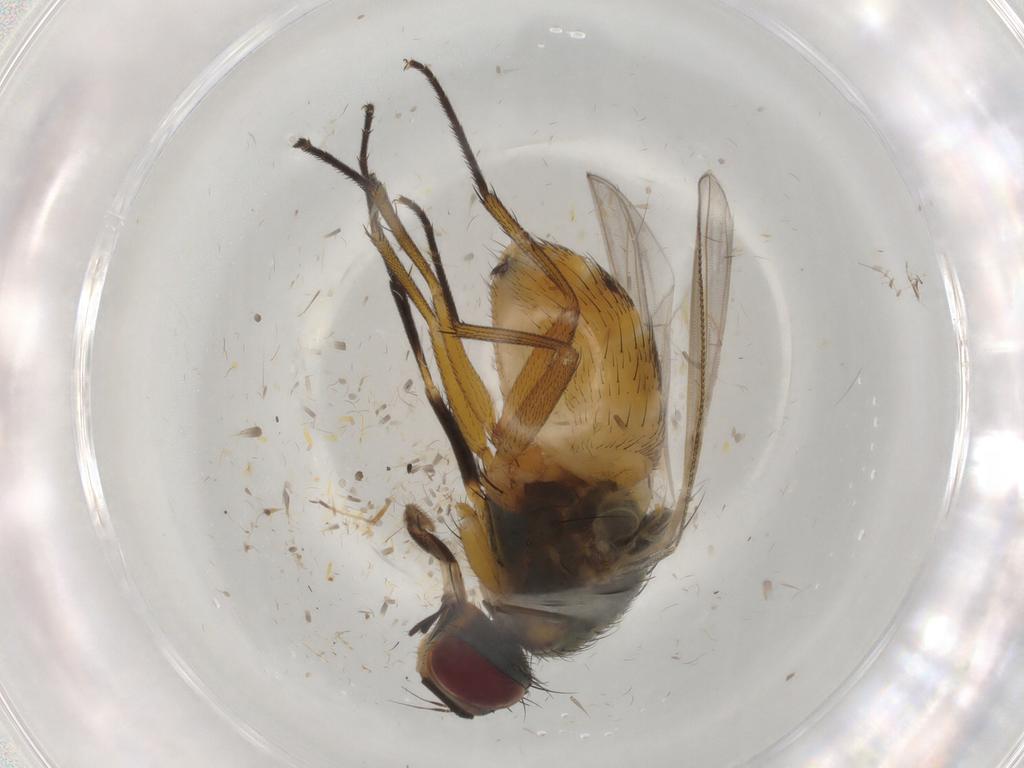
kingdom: Animalia
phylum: Arthropoda
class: Insecta
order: Diptera
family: Muscidae
